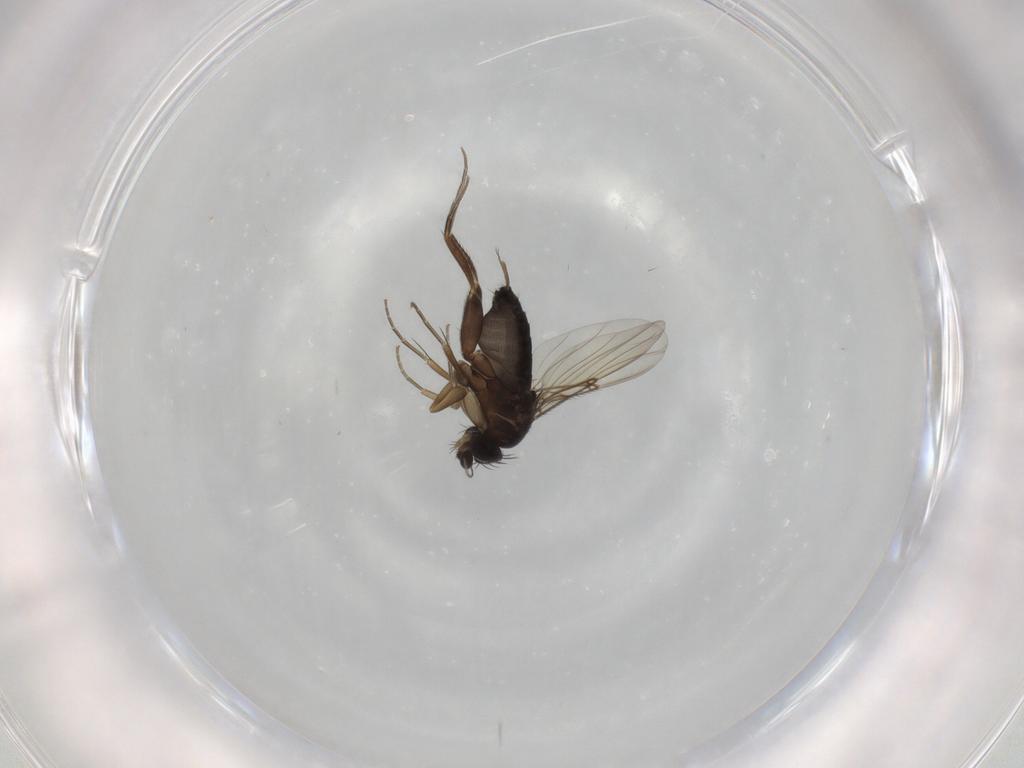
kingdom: Animalia
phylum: Arthropoda
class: Insecta
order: Diptera
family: Phoridae
